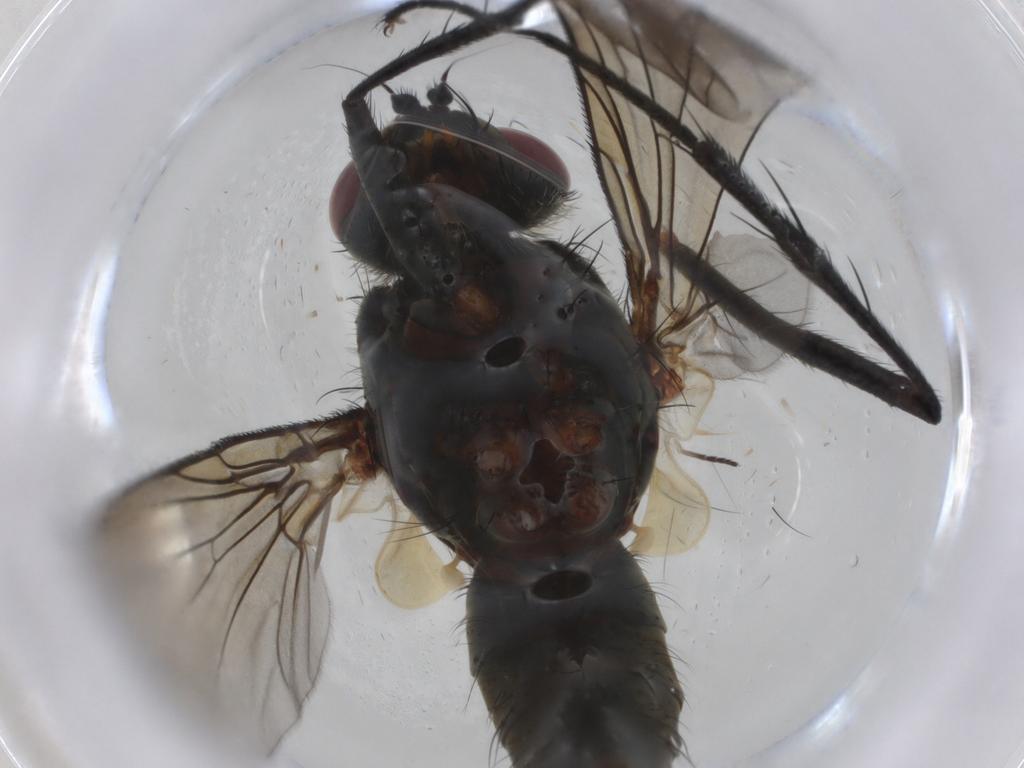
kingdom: Animalia
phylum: Arthropoda
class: Insecta
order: Diptera
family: Tachinidae
